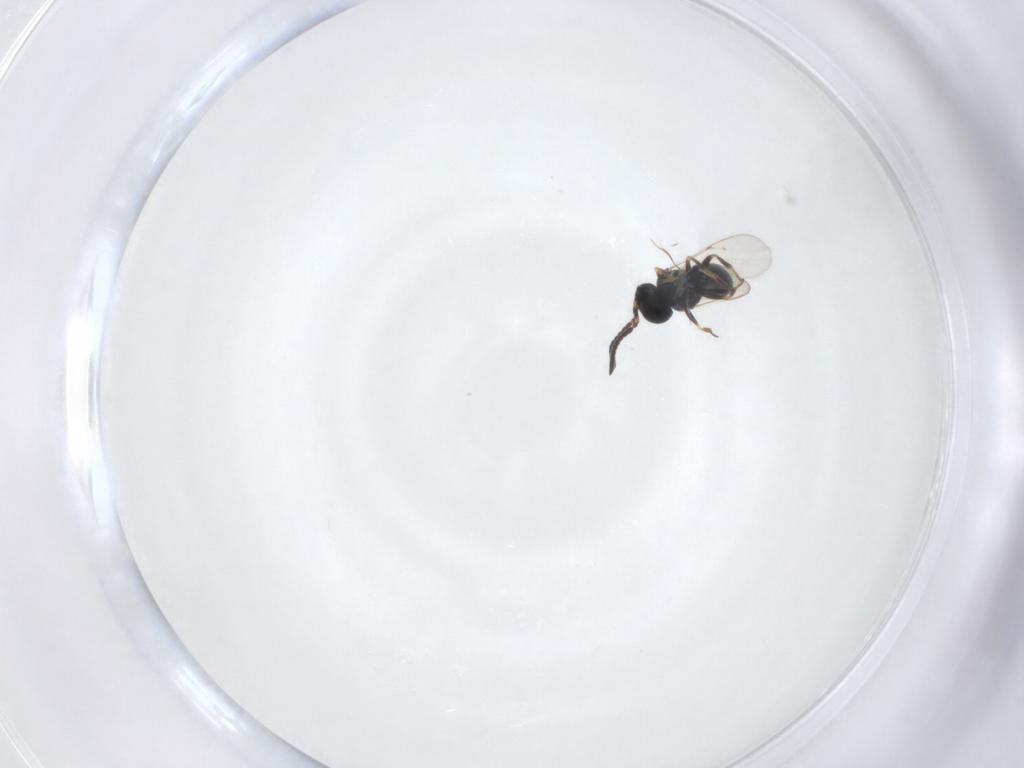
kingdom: Animalia
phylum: Arthropoda
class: Insecta
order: Hymenoptera
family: Scelionidae
